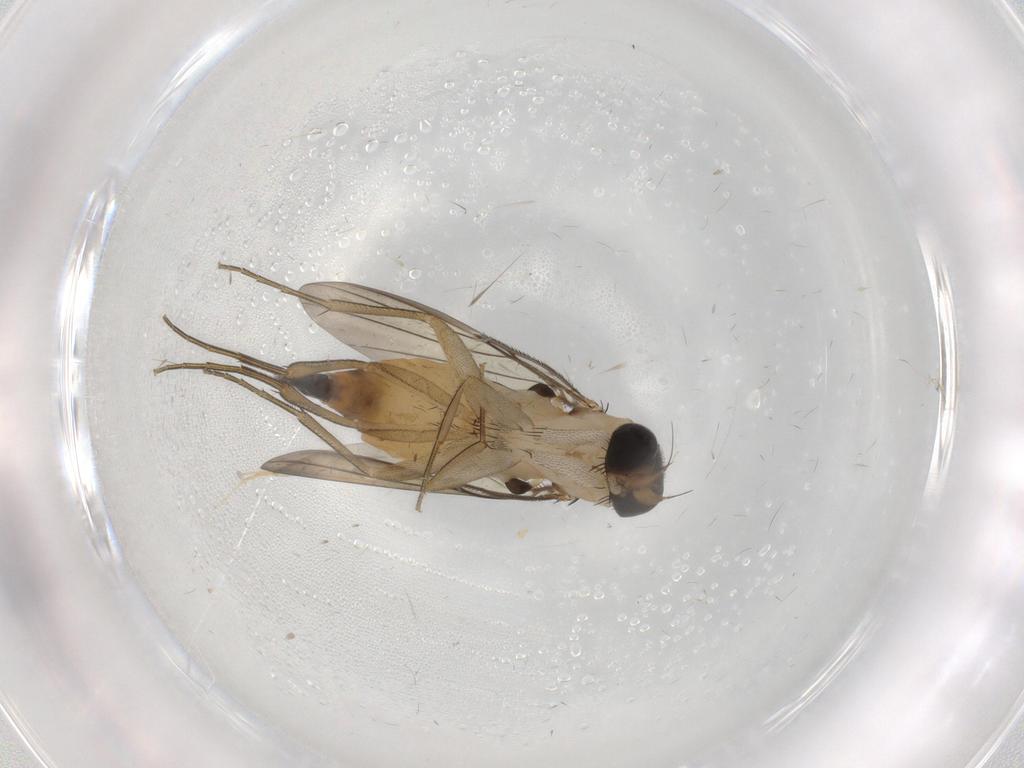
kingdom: Animalia
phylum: Arthropoda
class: Insecta
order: Diptera
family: Phoridae
